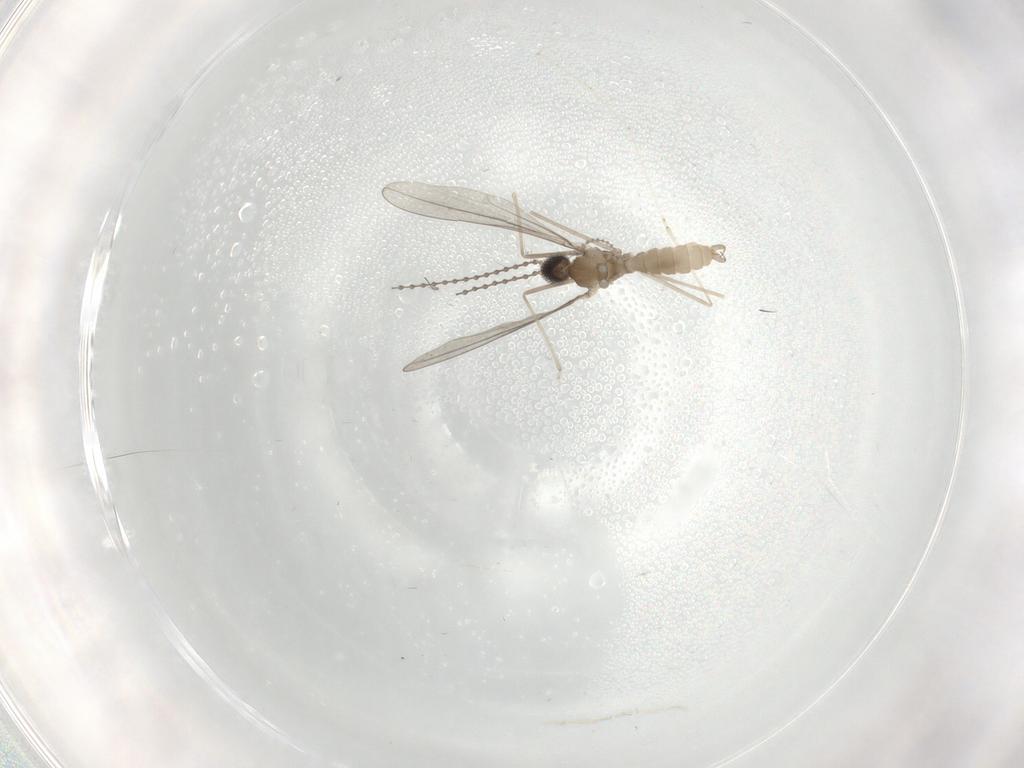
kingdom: Animalia
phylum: Arthropoda
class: Insecta
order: Diptera
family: Cecidomyiidae
